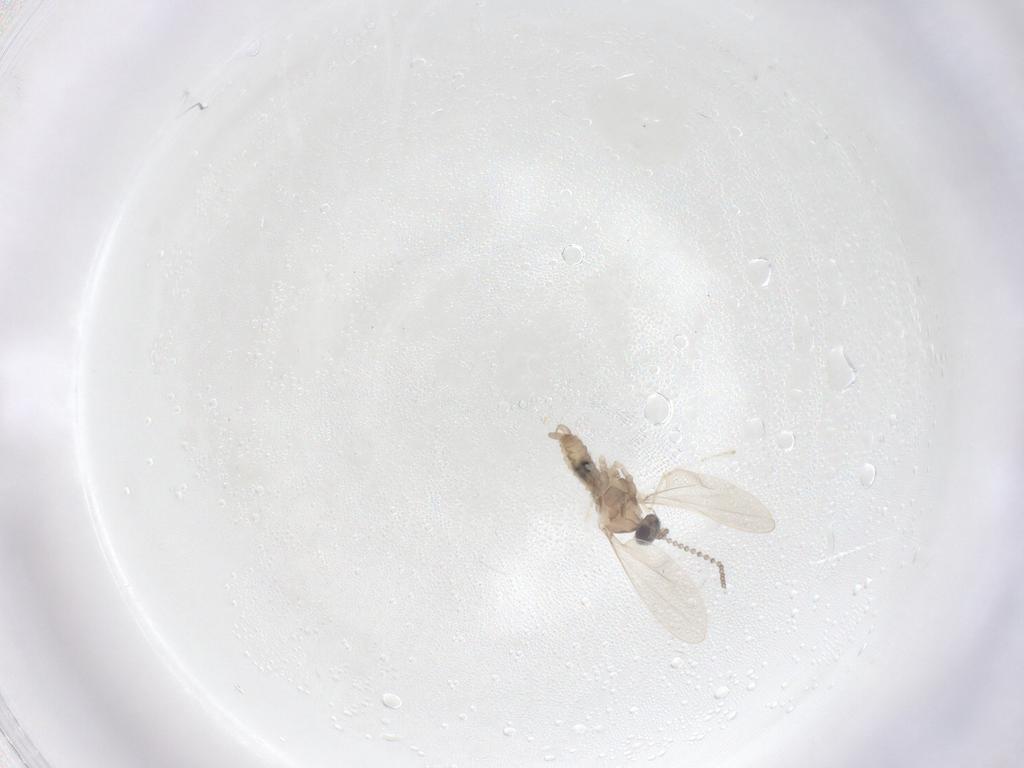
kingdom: Animalia
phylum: Arthropoda
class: Insecta
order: Diptera
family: Cecidomyiidae
